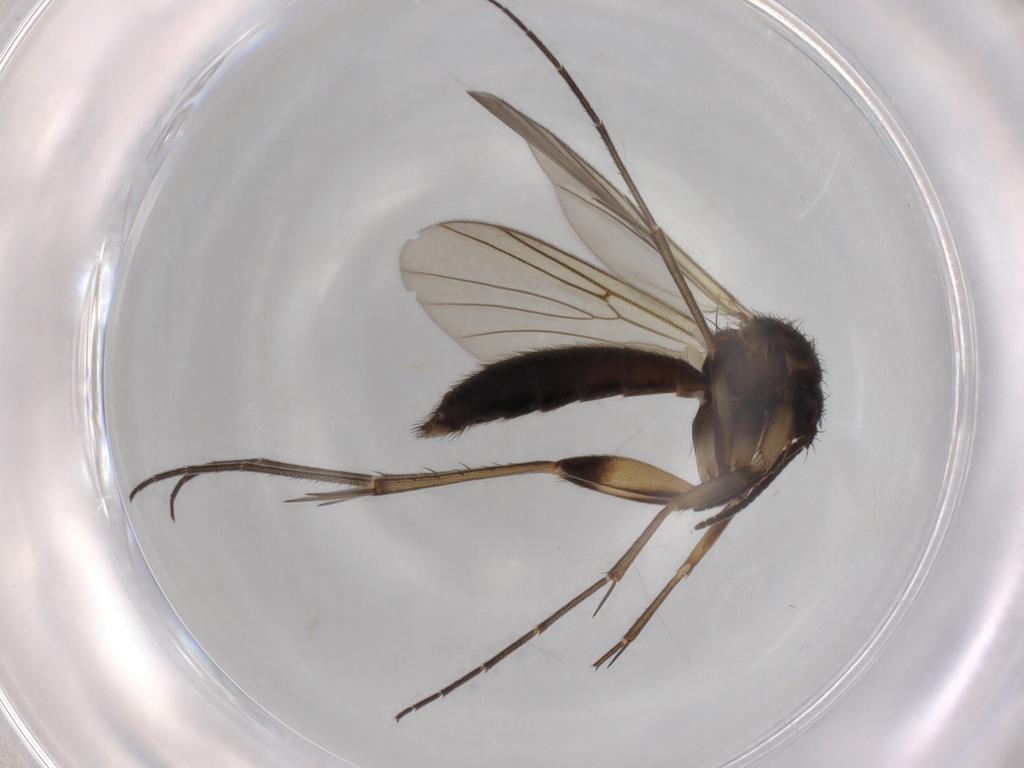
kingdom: Animalia
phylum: Arthropoda
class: Insecta
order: Diptera
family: Mycetophilidae
